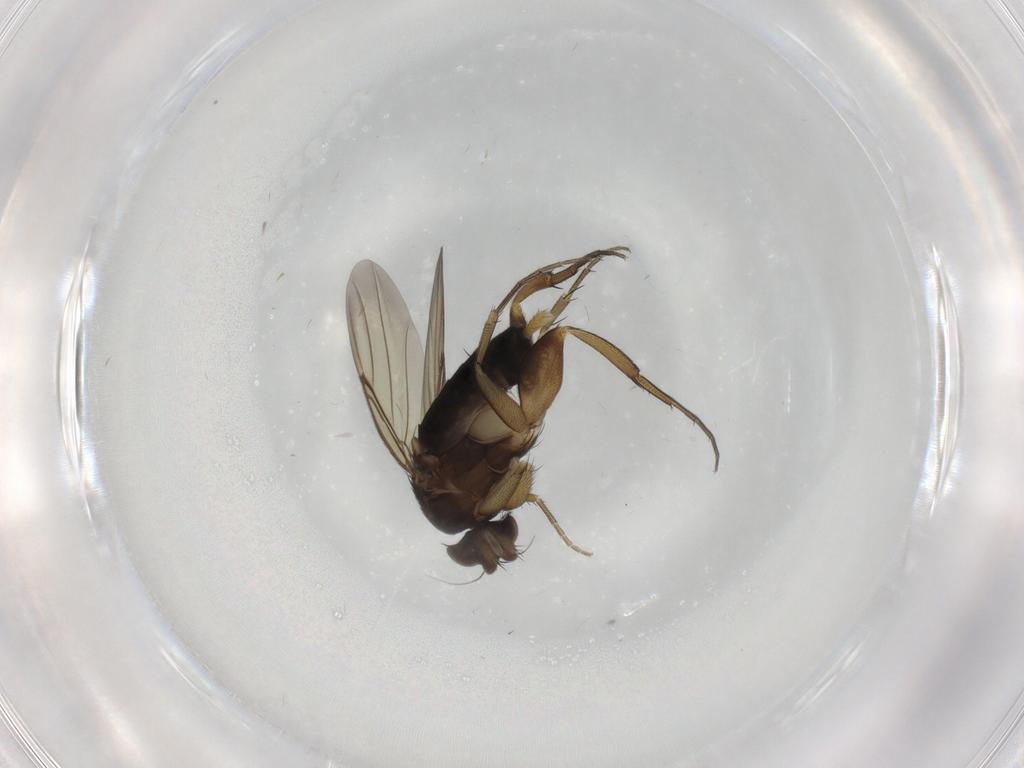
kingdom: Animalia
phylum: Arthropoda
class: Insecta
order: Diptera
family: Phoridae
